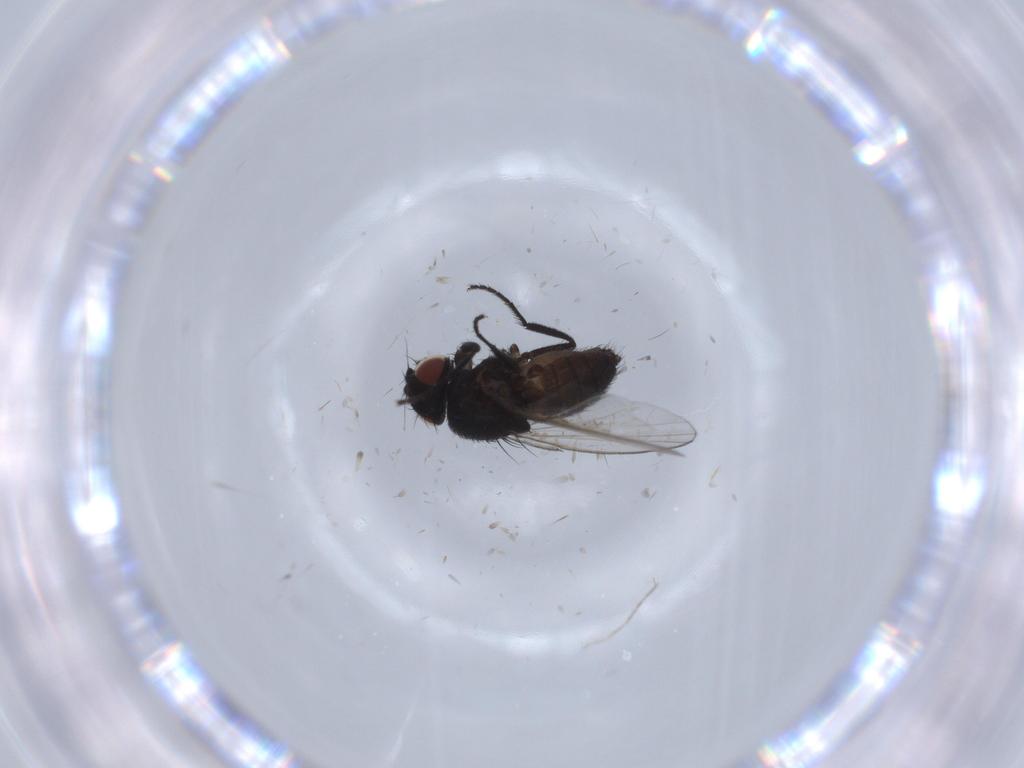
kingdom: Animalia
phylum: Arthropoda
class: Insecta
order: Diptera
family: Milichiidae
